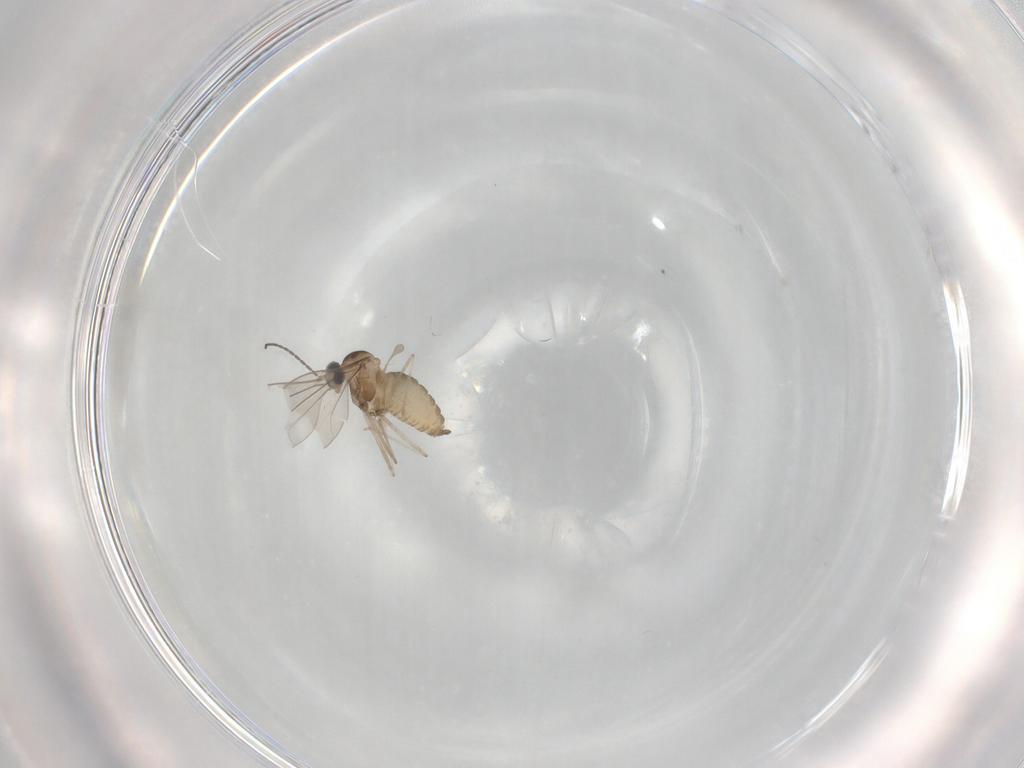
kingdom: Animalia
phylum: Arthropoda
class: Insecta
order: Diptera
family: Cecidomyiidae
